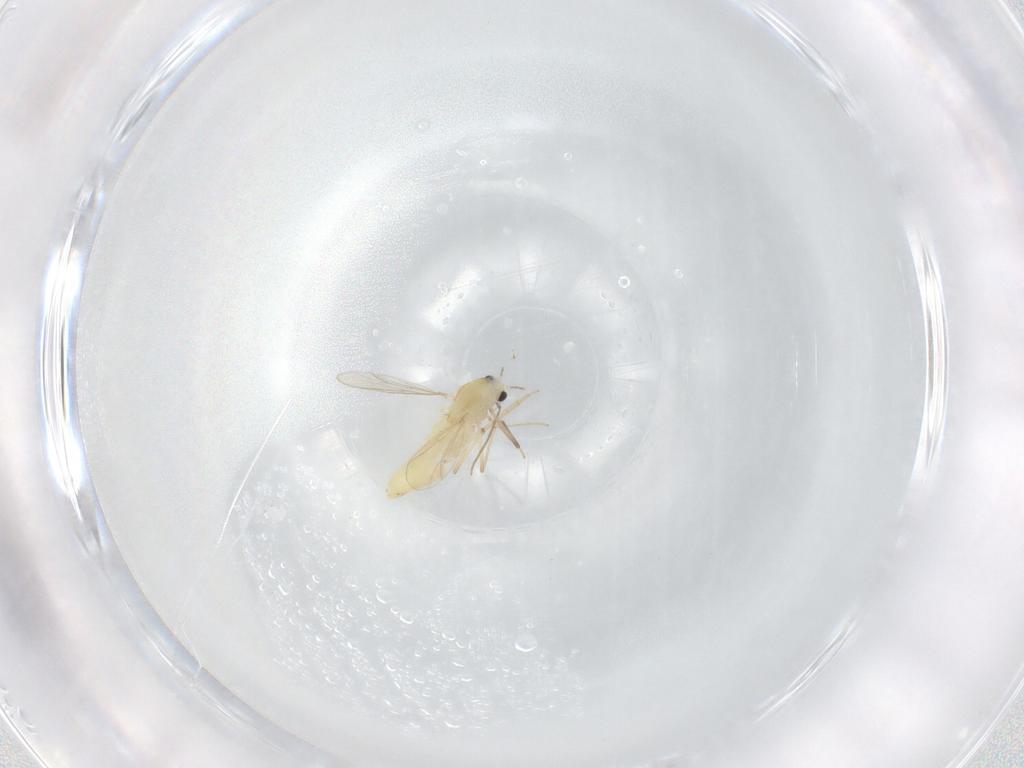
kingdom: Animalia
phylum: Arthropoda
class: Insecta
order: Diptera
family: Chironomidae
